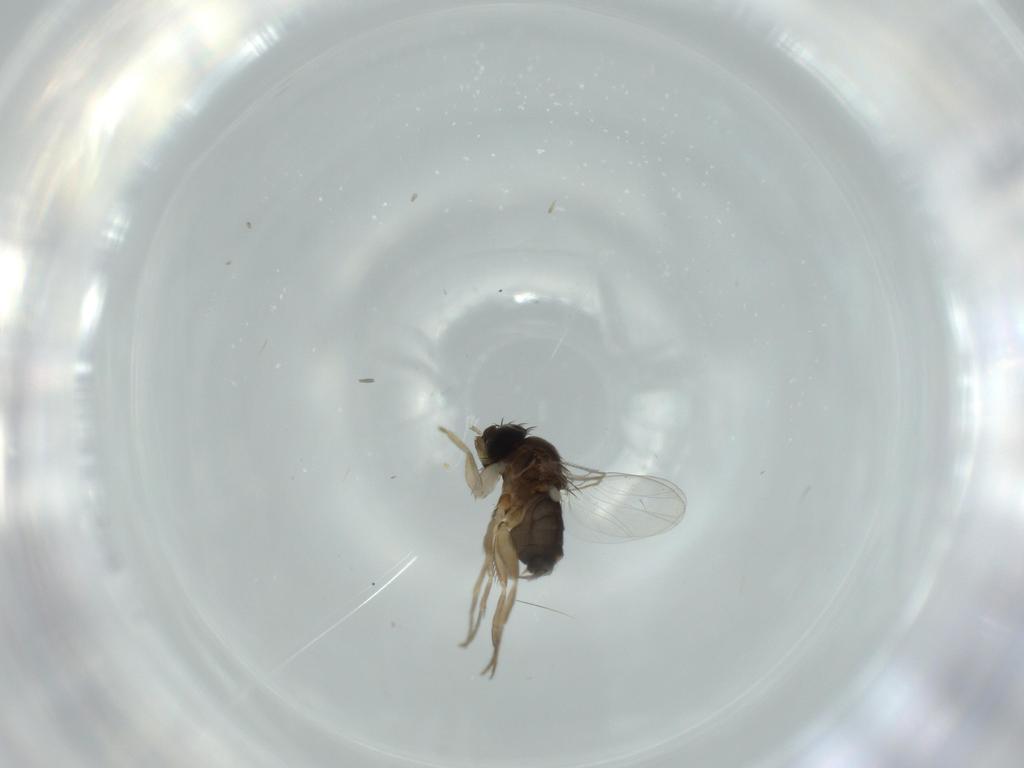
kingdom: Animalia
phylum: Arthropoda
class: Insecta
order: Diptera
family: Phoridae
